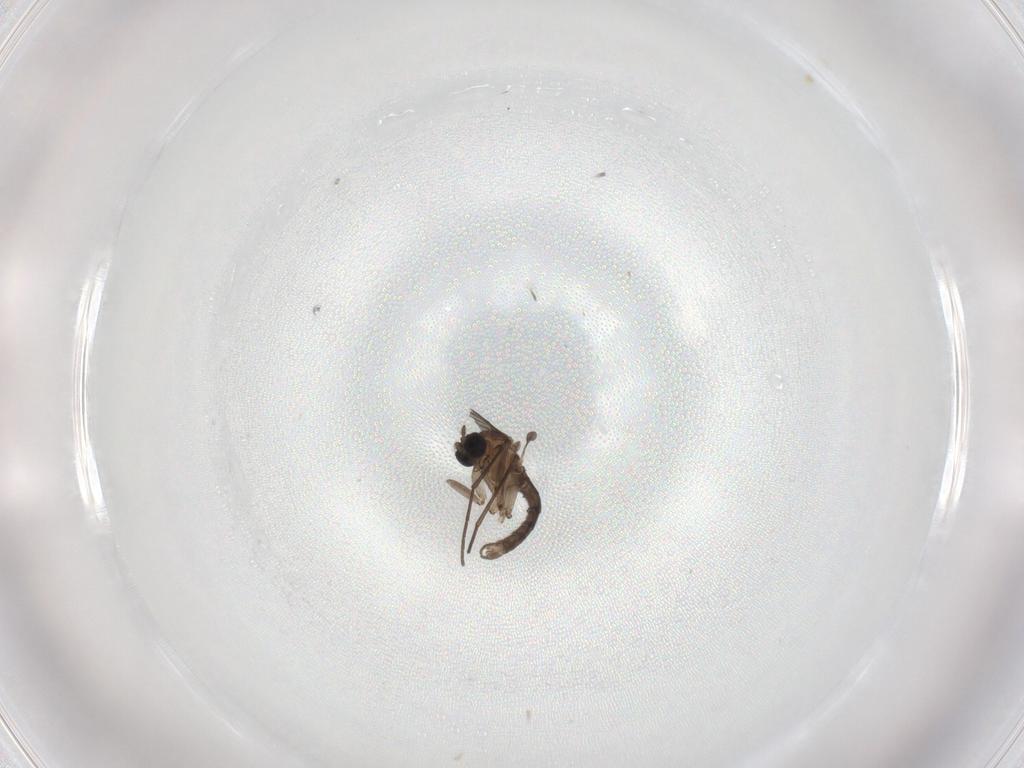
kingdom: Animalia
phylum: Arthropoda
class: Insecta
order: Diptera
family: Sciaridae
